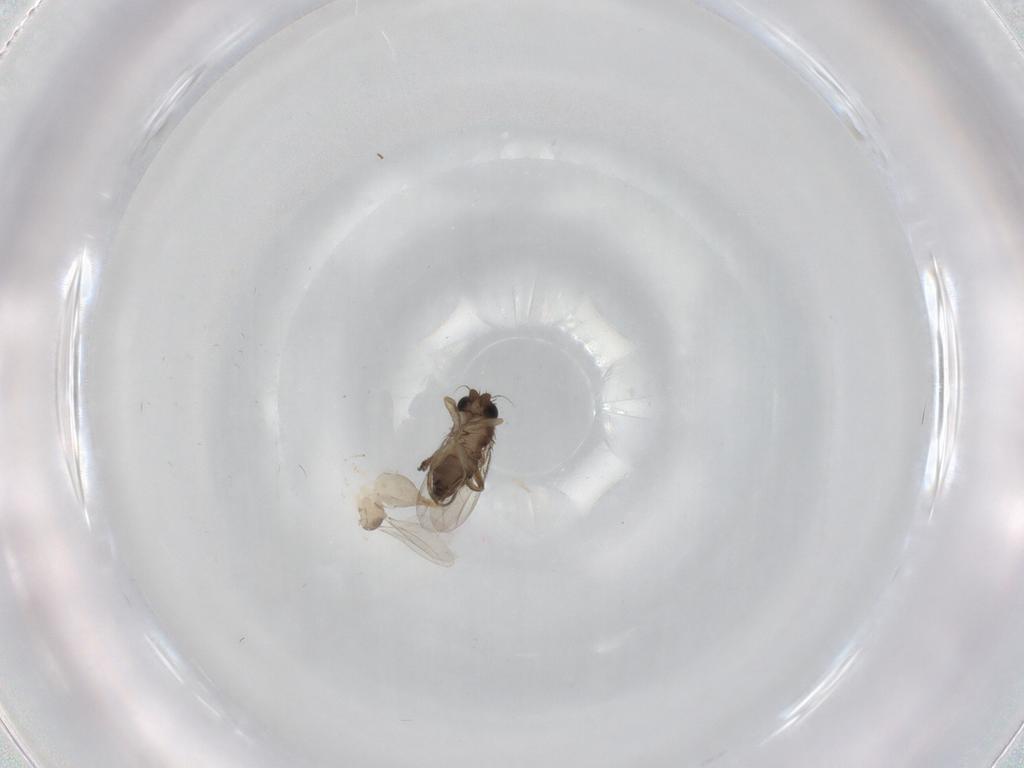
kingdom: Animalia
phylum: Arthropoda
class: Insecta
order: Diptera
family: Phoridae
